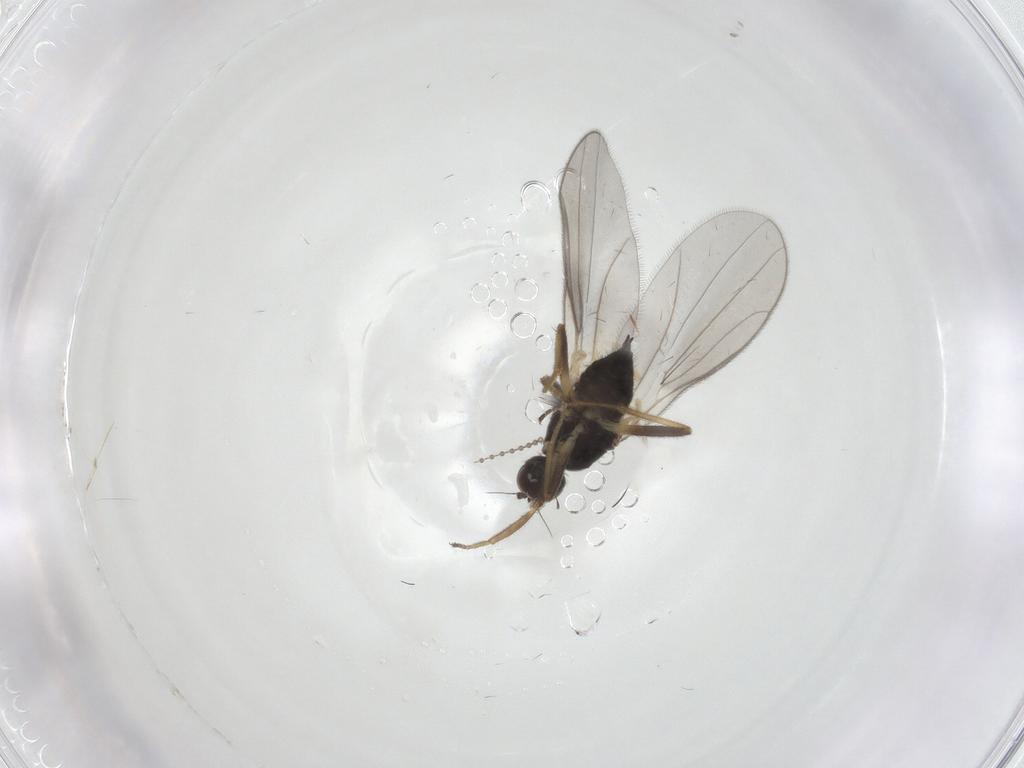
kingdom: Animalia
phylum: Arthropoda
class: Insecta
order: Diptera
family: Hybotidae
